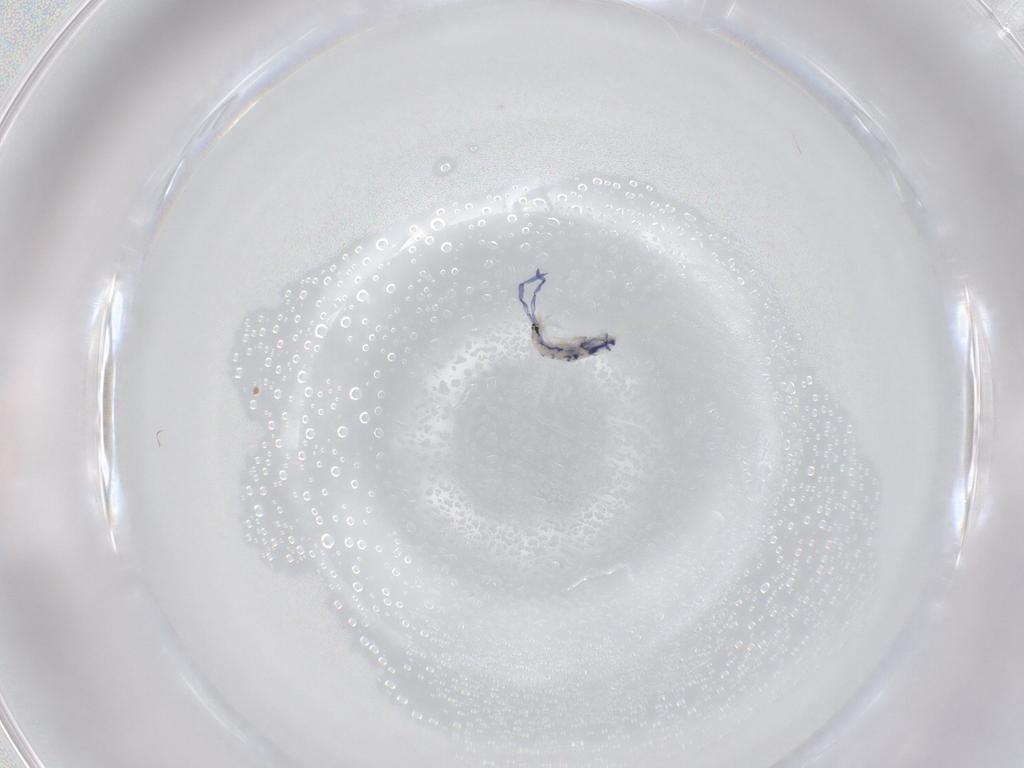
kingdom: Animalia
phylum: Arthropoda
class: Collembola
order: Entomobryomorpha
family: Entomobryidae
